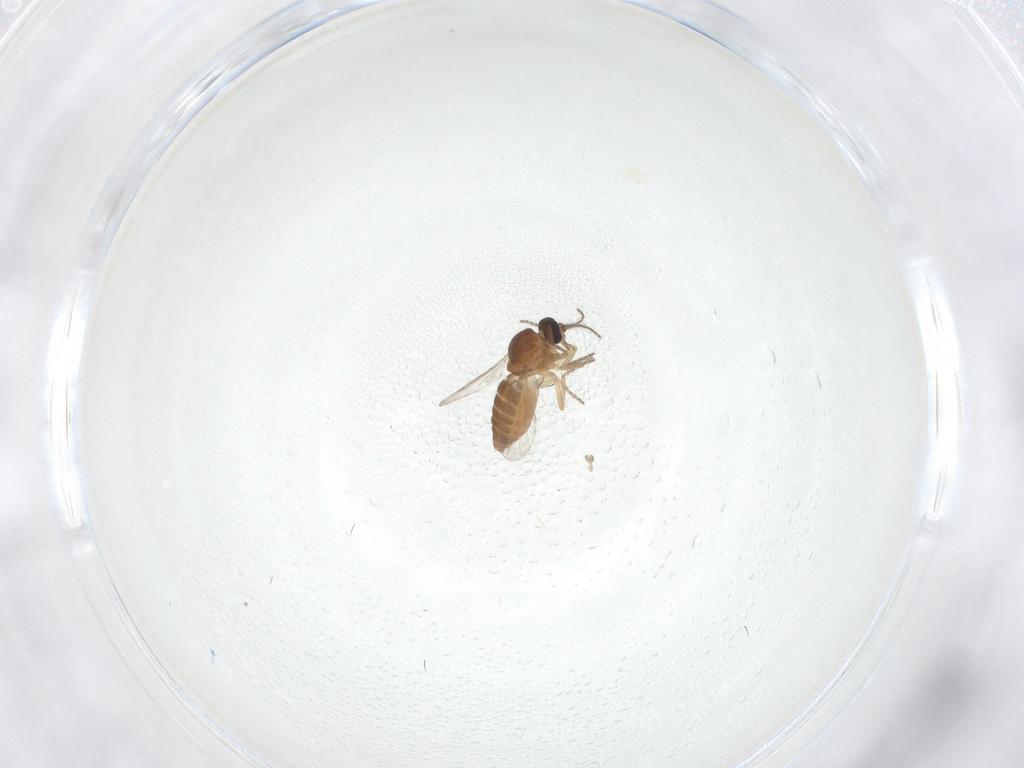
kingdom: Animalia
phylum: Arthropoda
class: Insecta
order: Diptera
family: Ceratopogonidae
